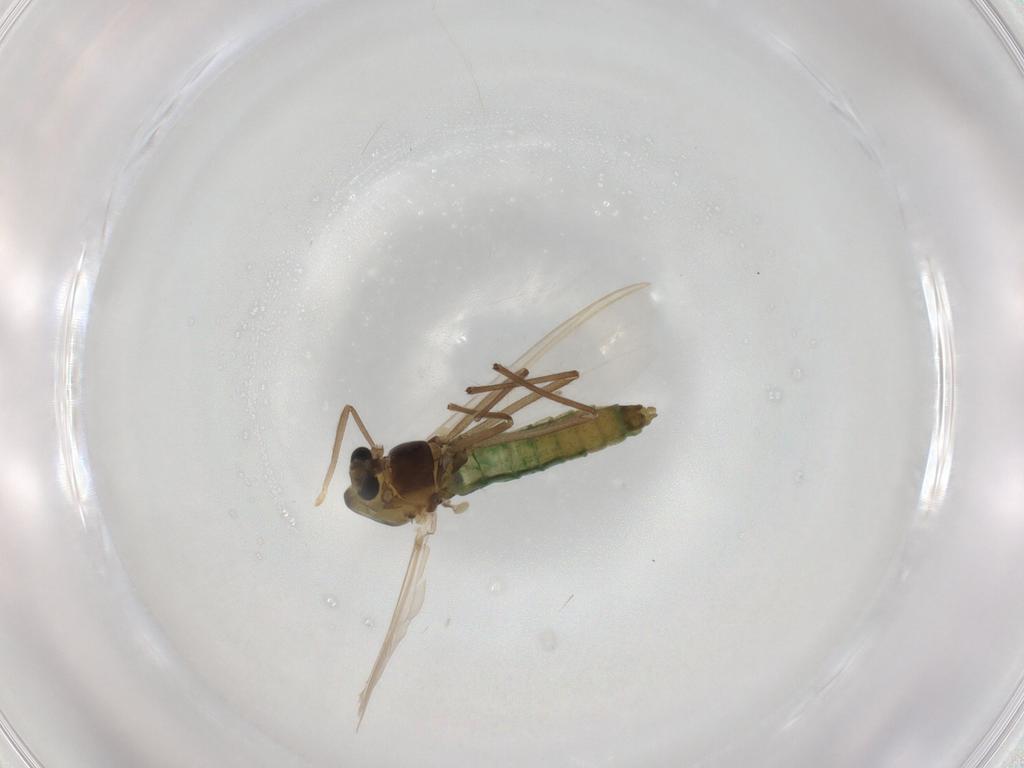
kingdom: Animalia
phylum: Arthropoda
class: Insecta
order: Diptera
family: Chironomidae
